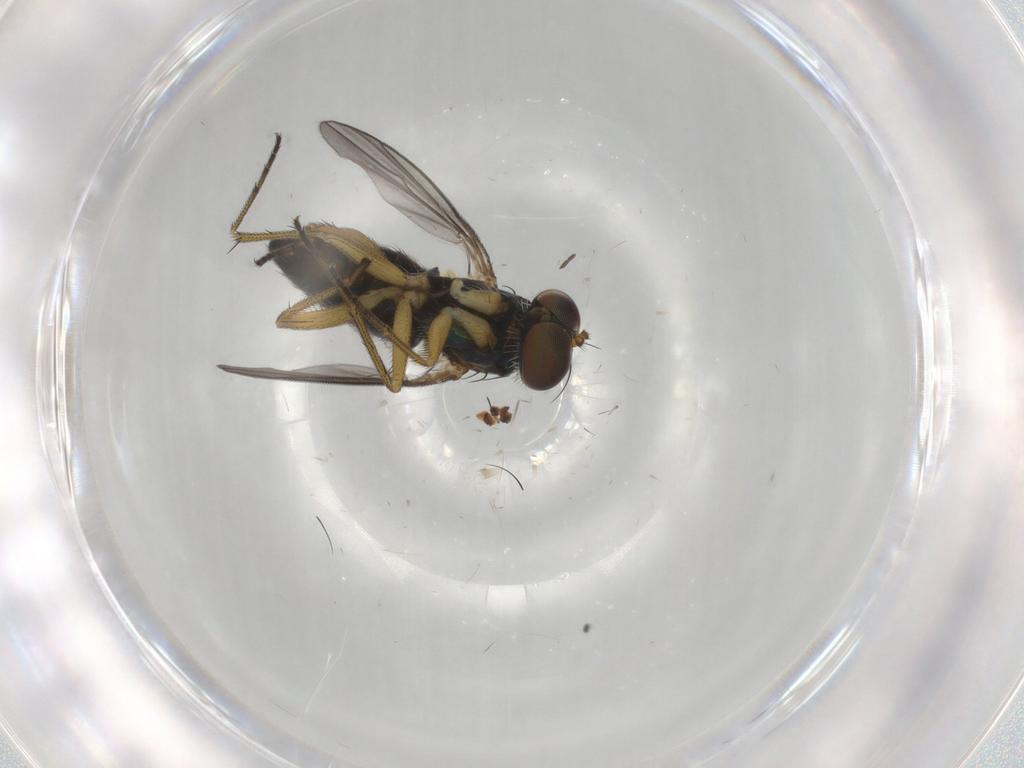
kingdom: Animalia
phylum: Arthropoda
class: Insecta
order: Diptera
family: Dolichopodidae
